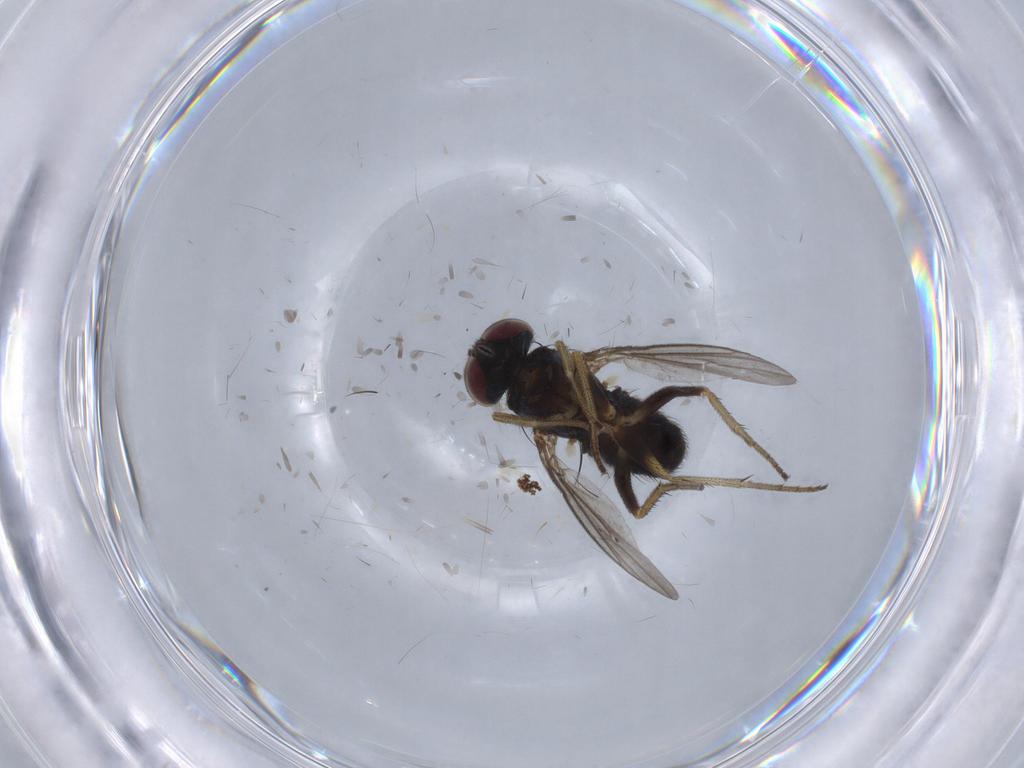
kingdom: Animalia
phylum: Arthropoda
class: Insecta
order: Diptera
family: Dolichopodidae
